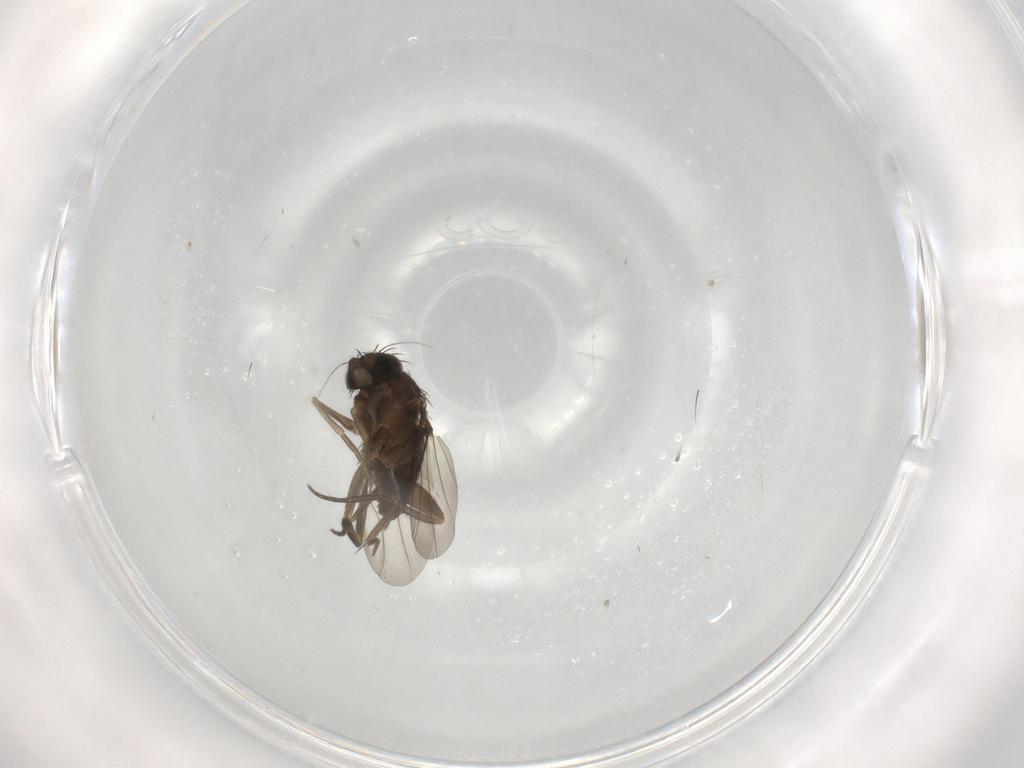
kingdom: Animalia
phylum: Arthropoda
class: Insecta
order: Diptera
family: Phoridae
